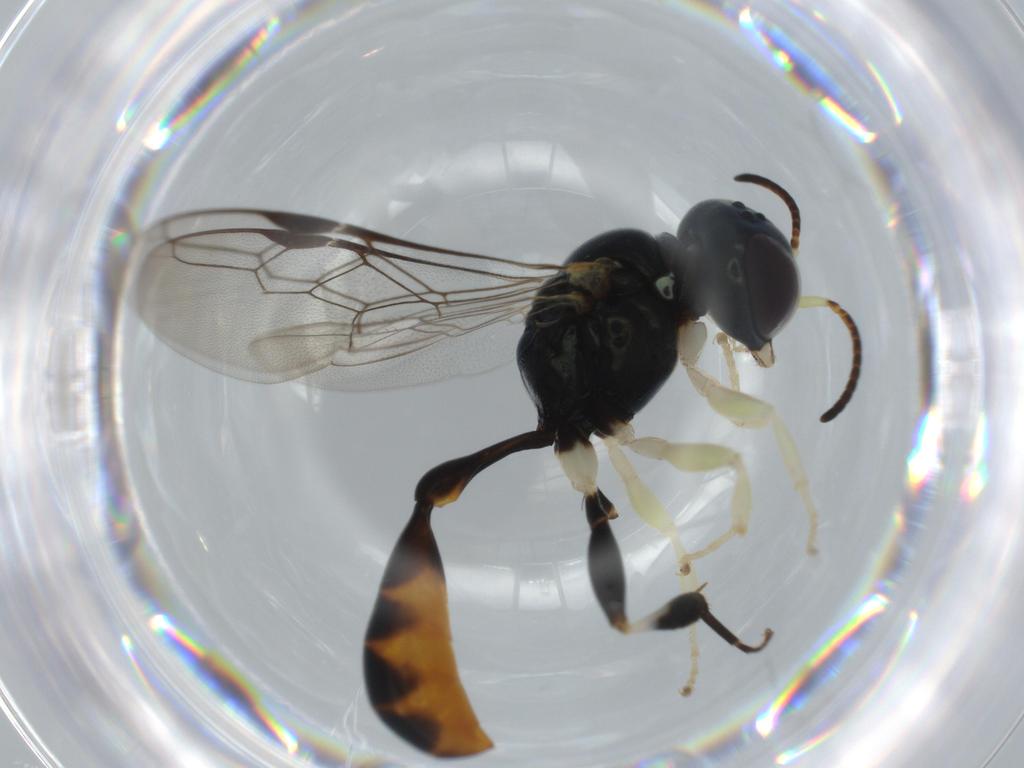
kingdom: Animalia
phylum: Arthropoda
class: Insecta
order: Hymenoptera
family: Crabronidae
